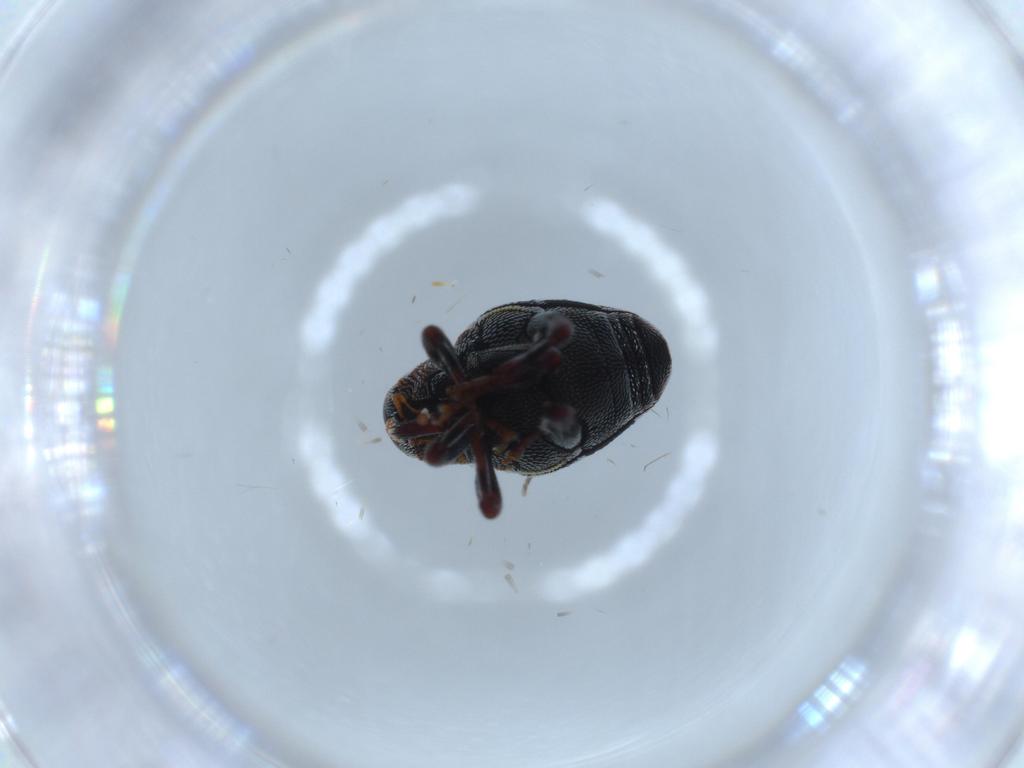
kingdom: Animalia
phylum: Arthropoda
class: Insecta
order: Coleoptera
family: Curculionidae
